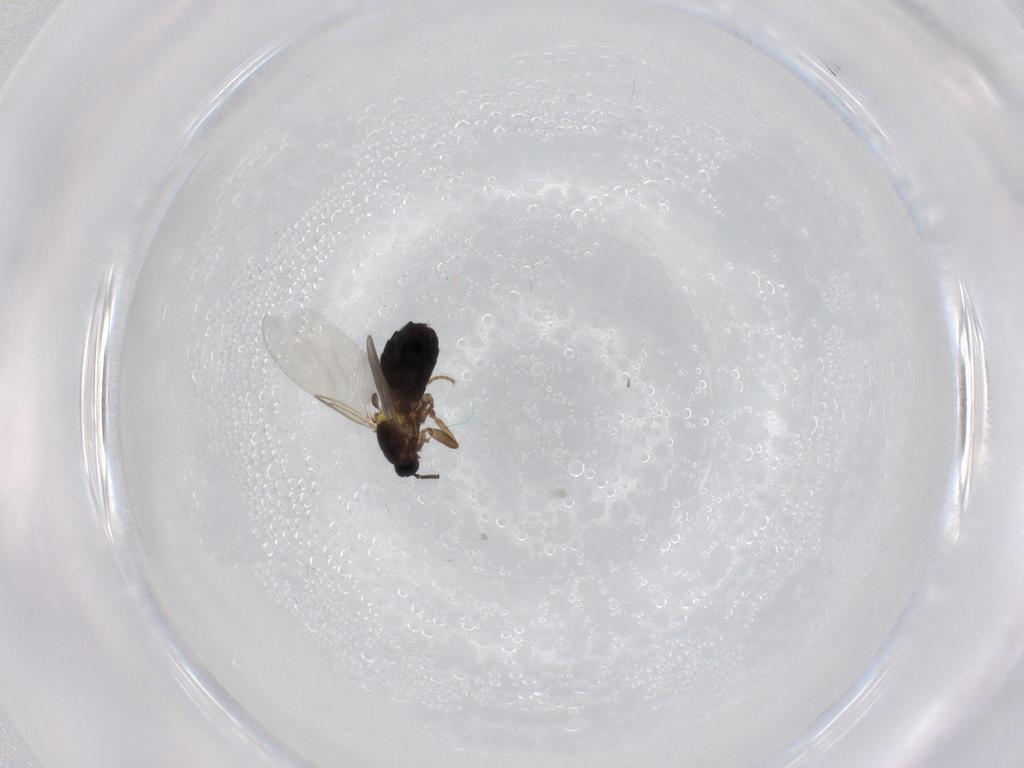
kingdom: Animalia
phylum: Arthropoda
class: Insecta
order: Diptera
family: Scatopsidae
